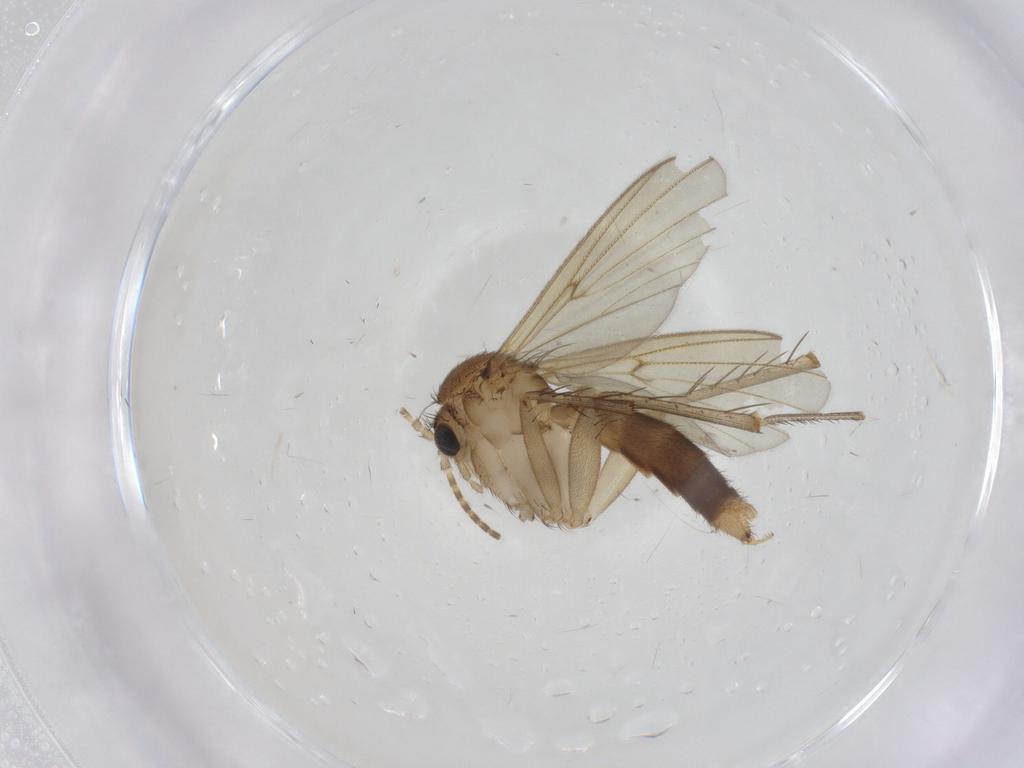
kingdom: Animalia
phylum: Arthropoda
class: Insecta
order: Diptera
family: Mycetophilidae
